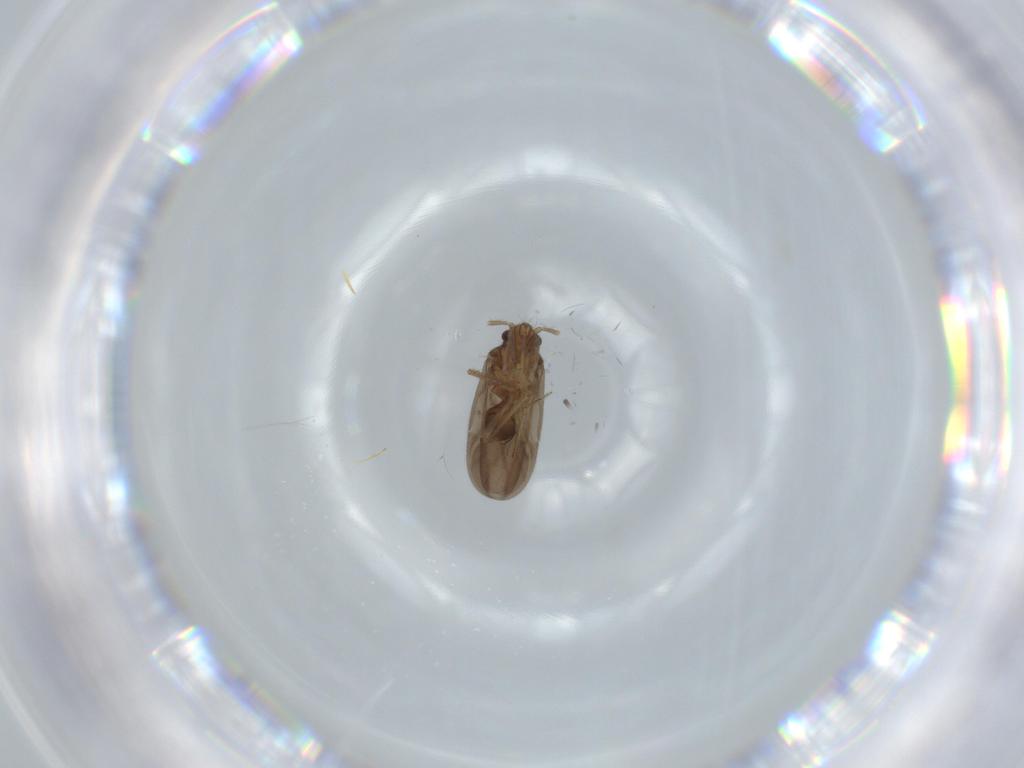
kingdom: Animalia
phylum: Arthropoda
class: Insecta
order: Hemiptera
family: Ceratocombidae
